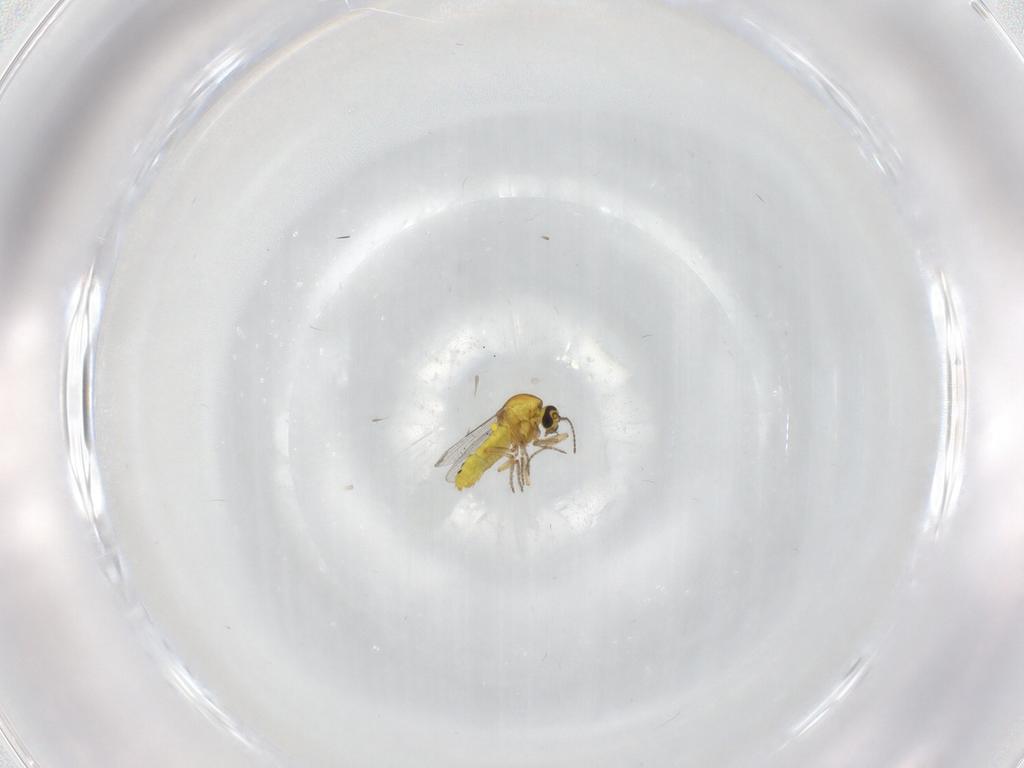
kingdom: Animalia
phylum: Arthropoda
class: Insecta
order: Diptera
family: Ceratopogonidae
